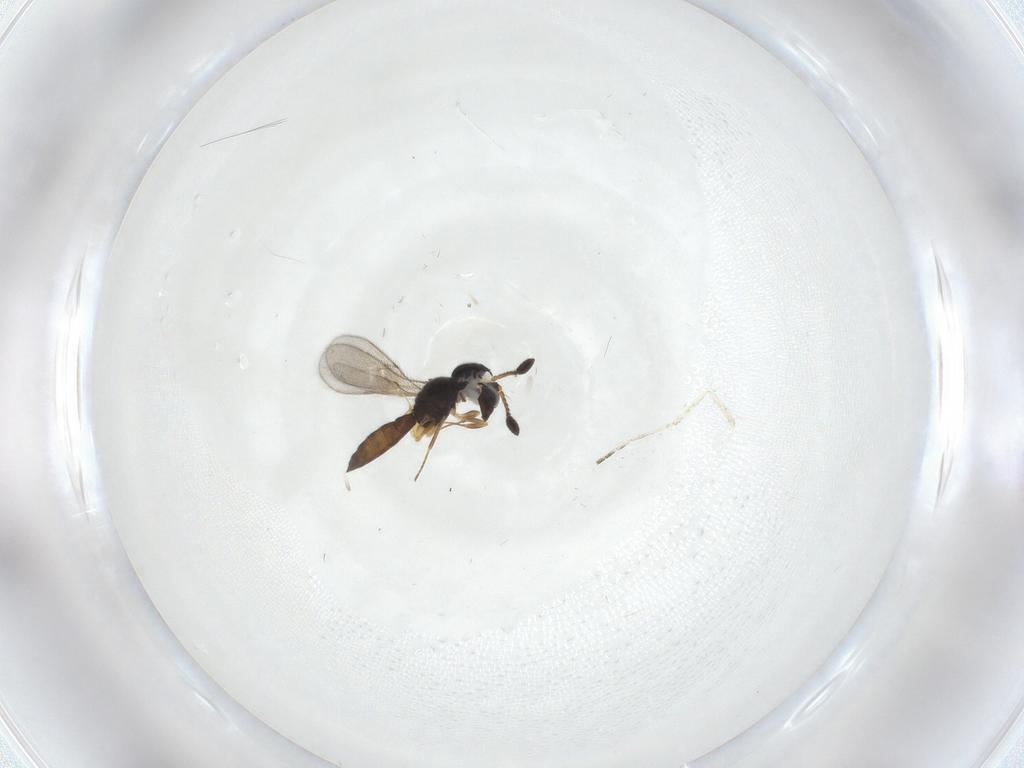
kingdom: Animalia
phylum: Arthropoda
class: Insecta
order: Hymenoptera
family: Scelionidae
